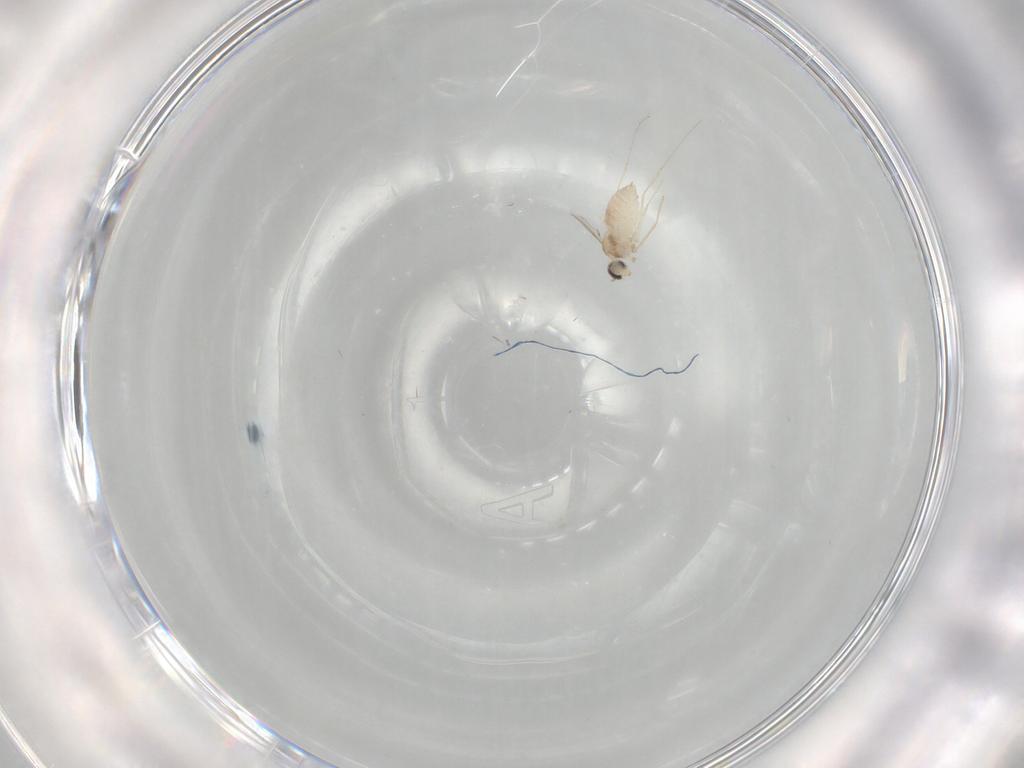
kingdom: Animalia
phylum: Arthropoda
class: Insecta
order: Diptera
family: Cecidomyiidae
